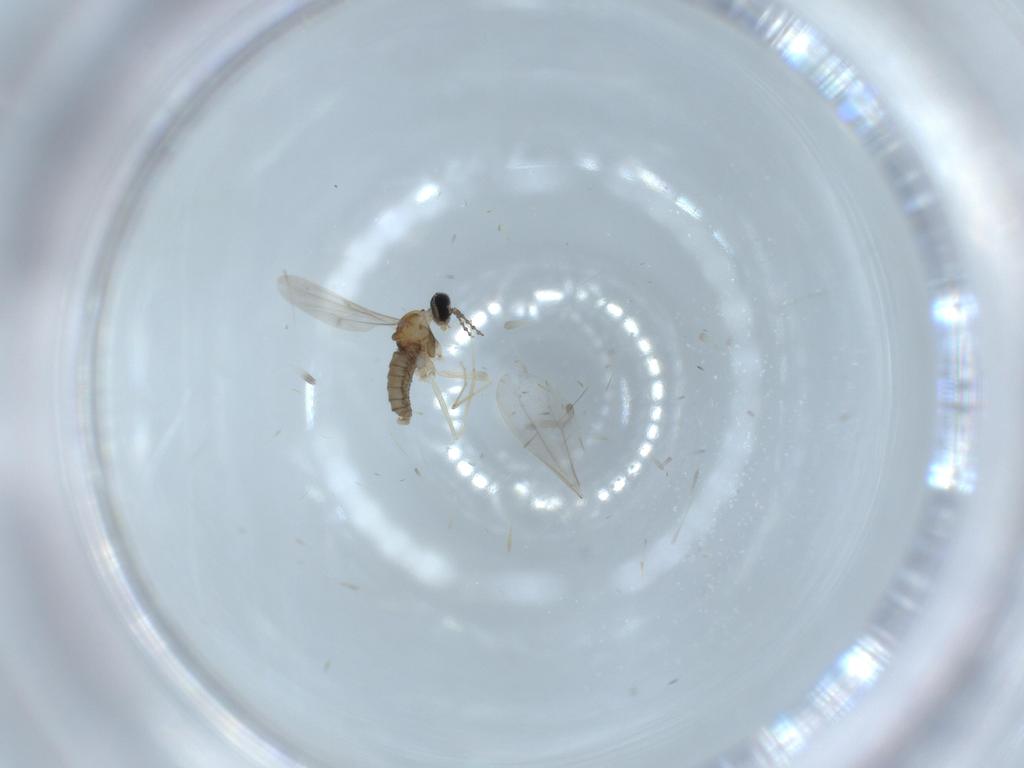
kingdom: Animalia
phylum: Arthropoda
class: Insecta
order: Diptera
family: Cecidomyiidae
